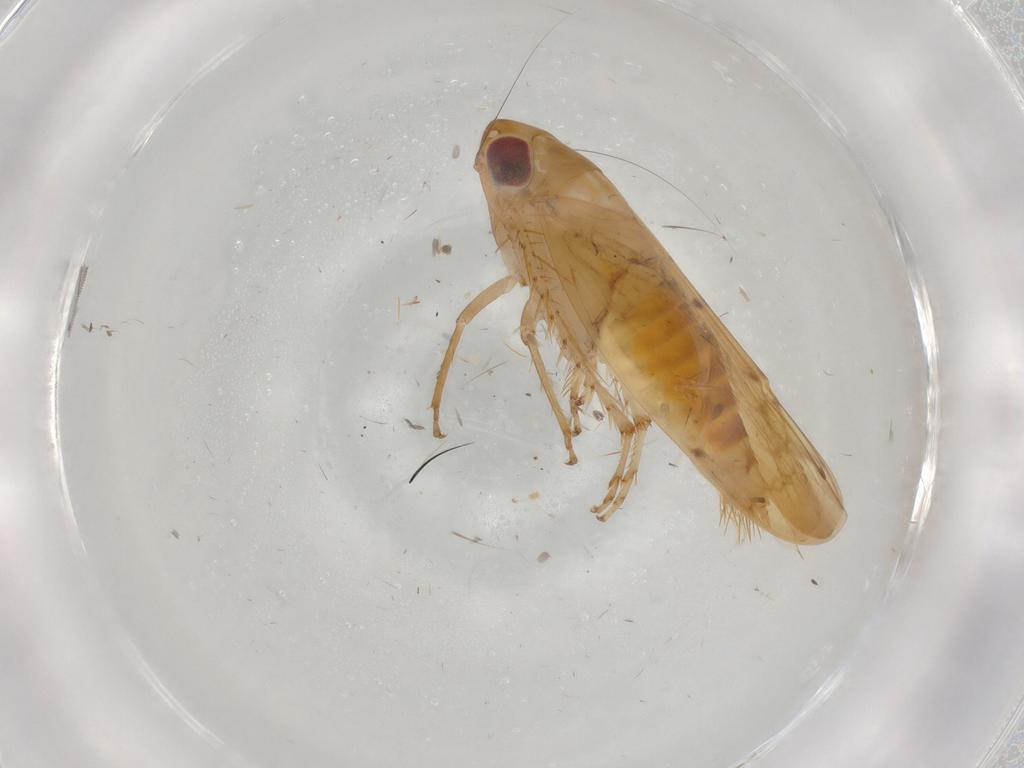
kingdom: Animalia
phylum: Arthropoda
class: Insecta
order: Hemiptera
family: Cicadellidae
